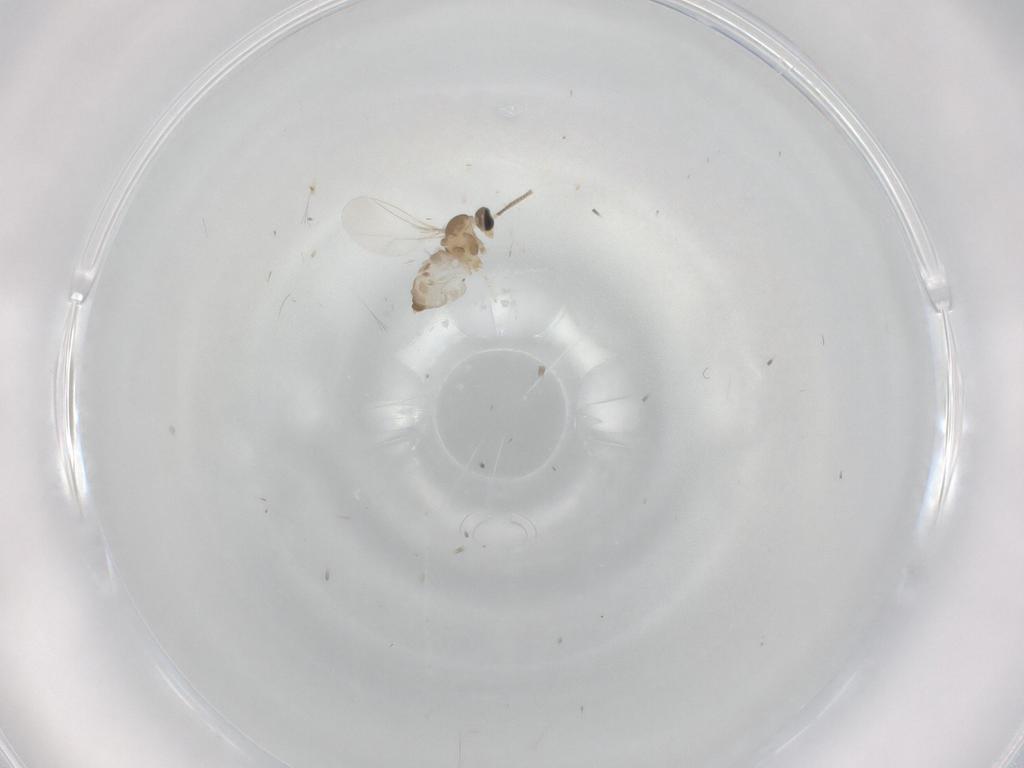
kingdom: Animalia
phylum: Arthropoda
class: Insecta
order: Diptera
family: Cecidomyiidae
